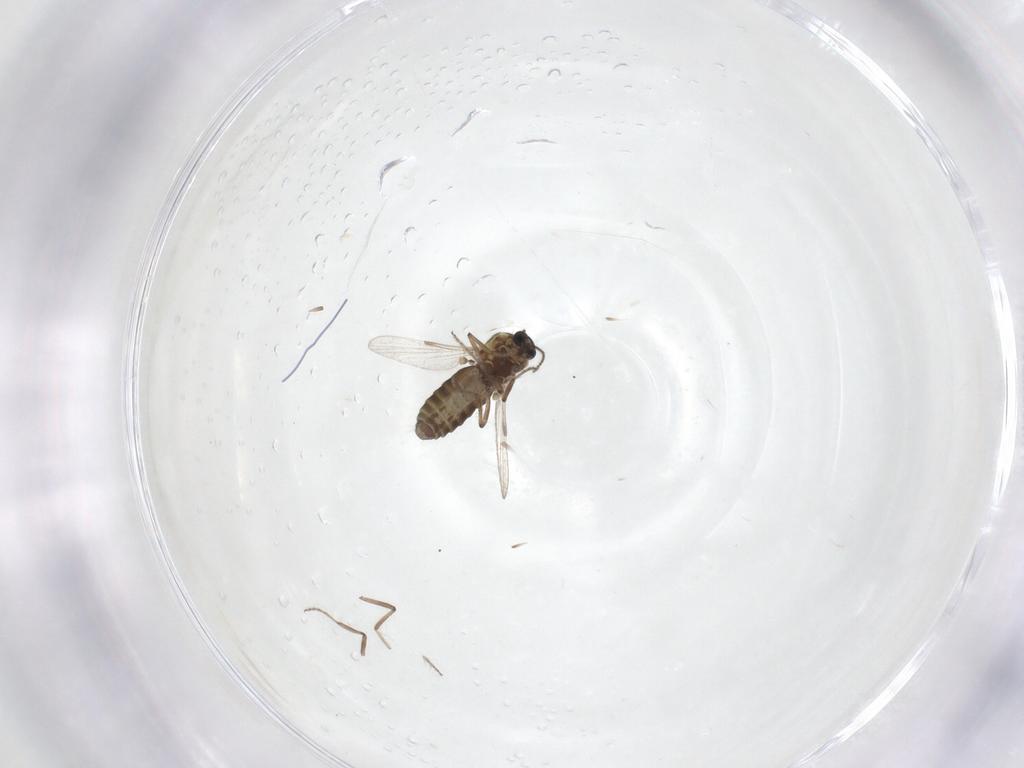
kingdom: Animalia
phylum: Arthropoda
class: Insecta
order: Diptera
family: Ceratopogonidae
